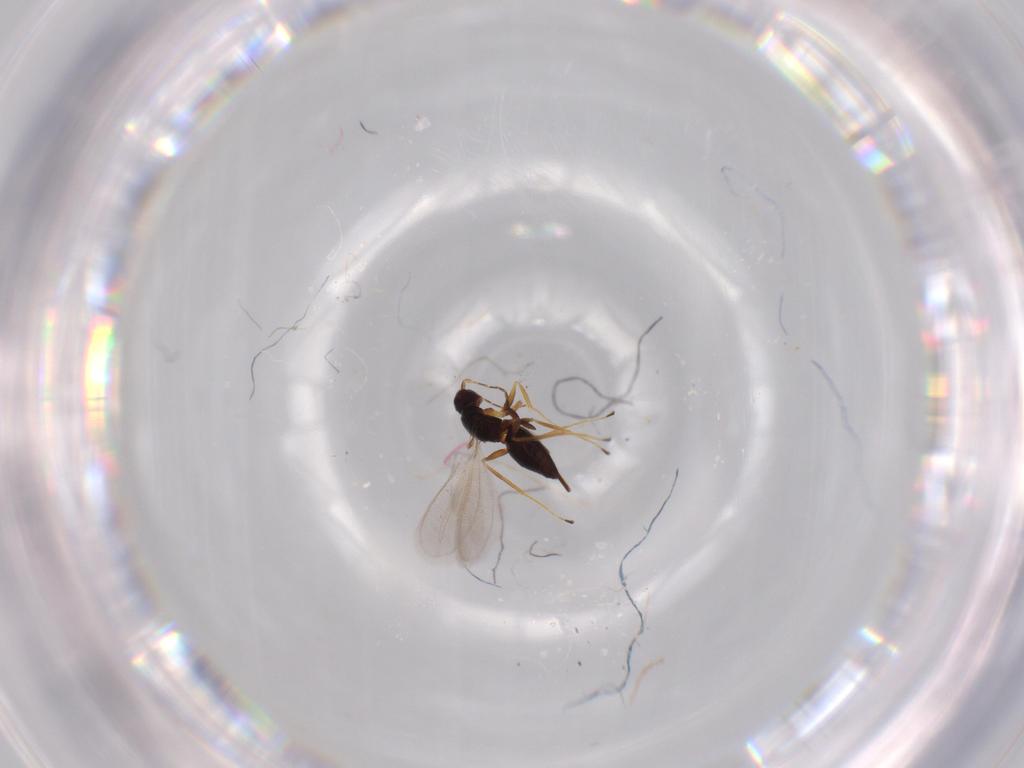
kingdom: Animalia
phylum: Arthropoda
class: Insecta
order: Hymenoptera
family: Mymaridae
